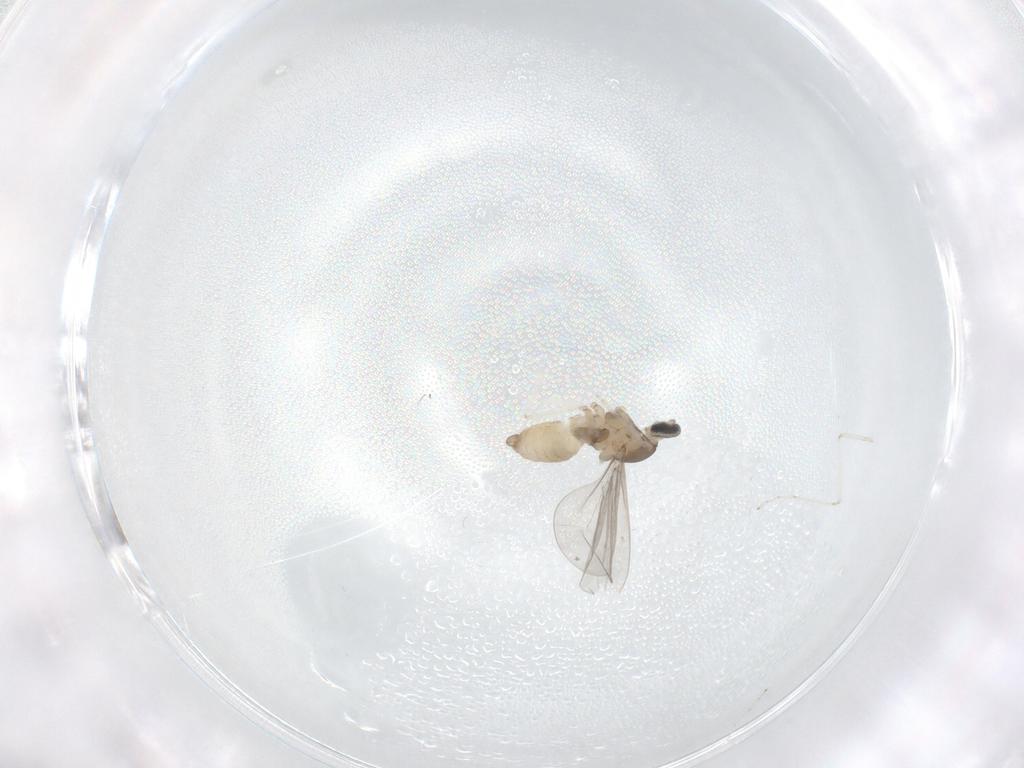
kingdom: Animalia
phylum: Arthropoda
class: Insecta
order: Diptera
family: Cecidomyiidae
